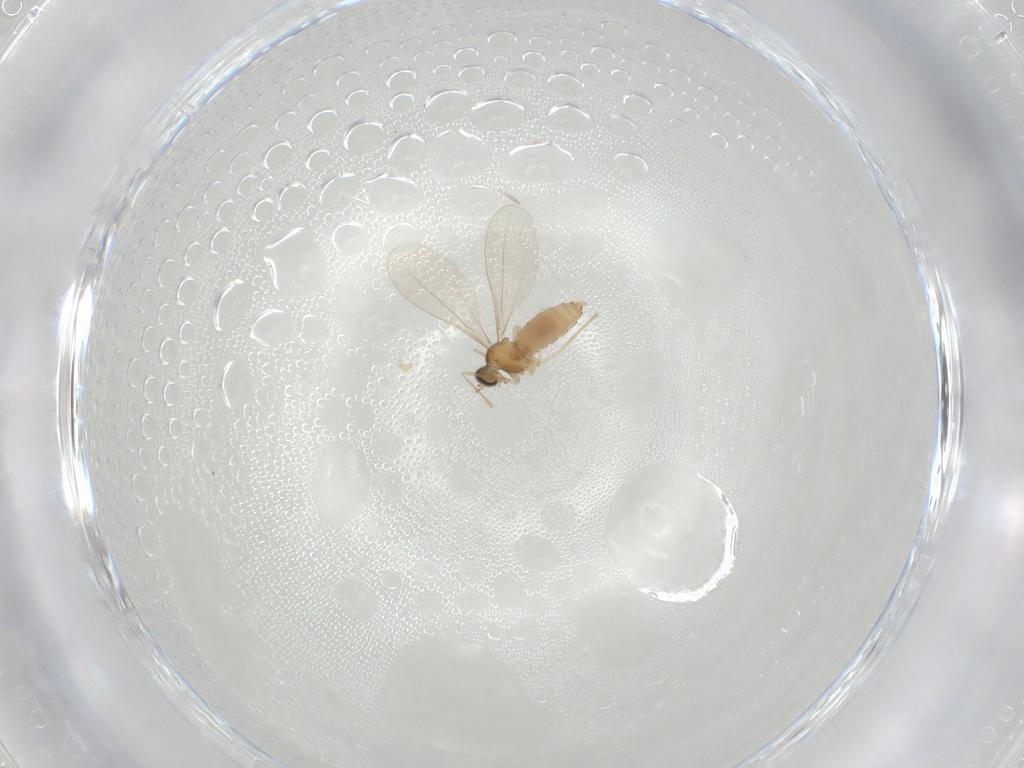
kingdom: Animalia
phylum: Arthropoda
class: Insecta
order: Diptera
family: Cecidomyiidae
